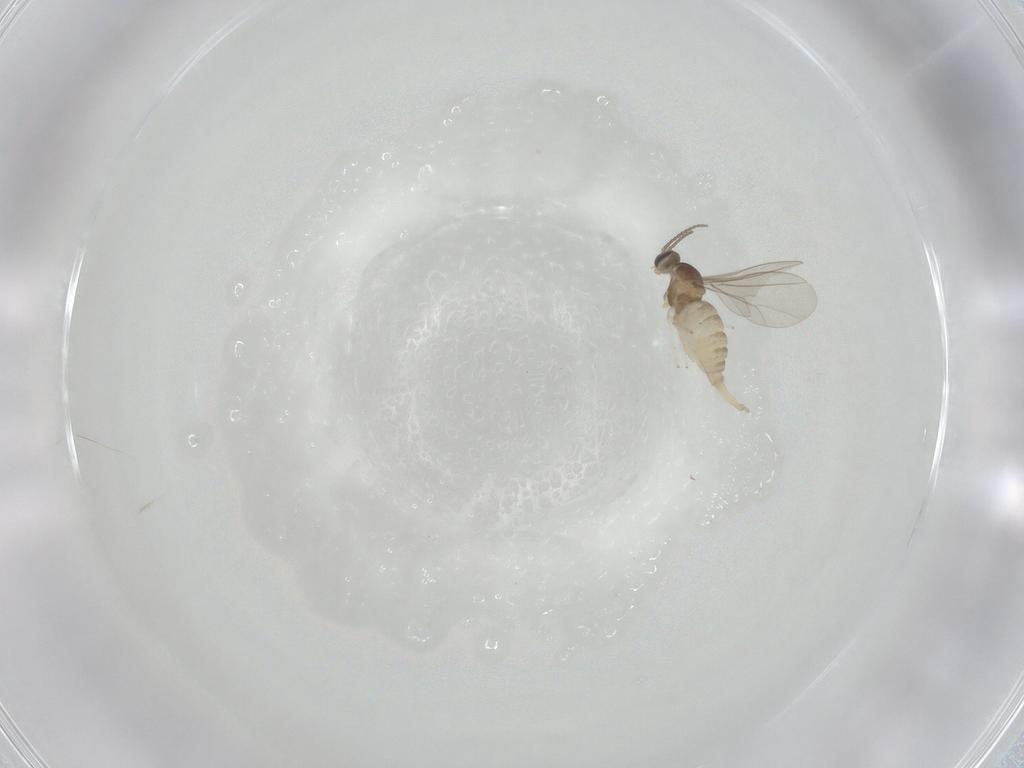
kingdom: Animalia
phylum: Arthropoda
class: Insecta
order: Diptera
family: Cecidomyiidae
